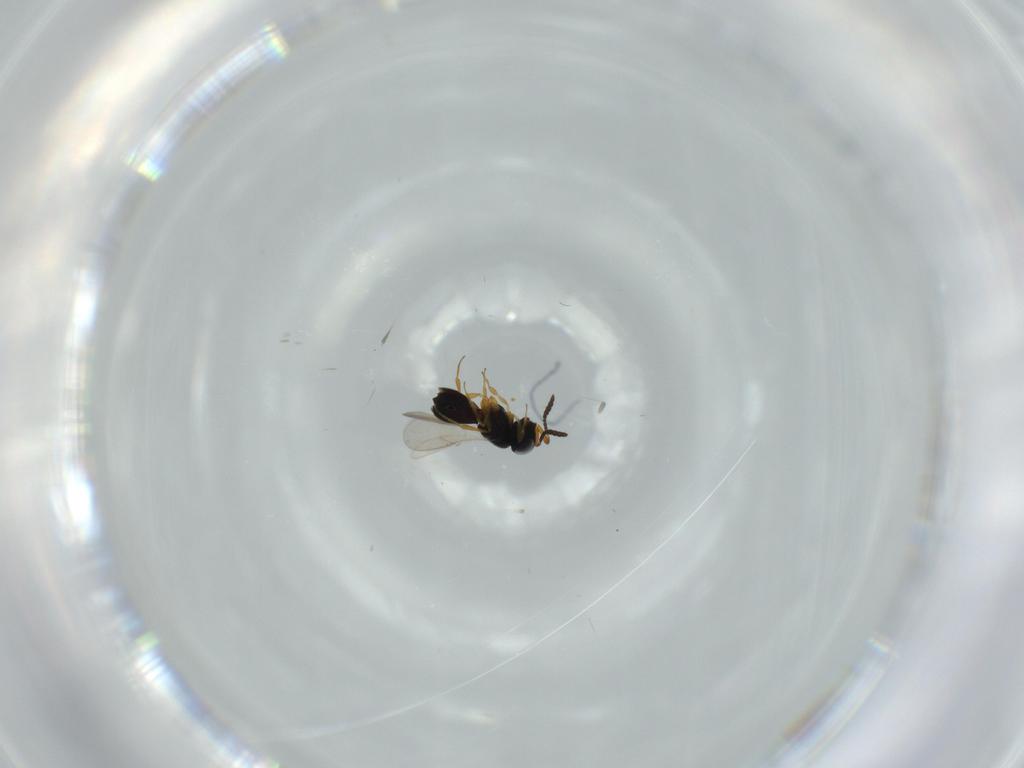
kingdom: Animalia
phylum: Arthropoda
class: Insecta
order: Hymenoptera
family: Scelionidae
